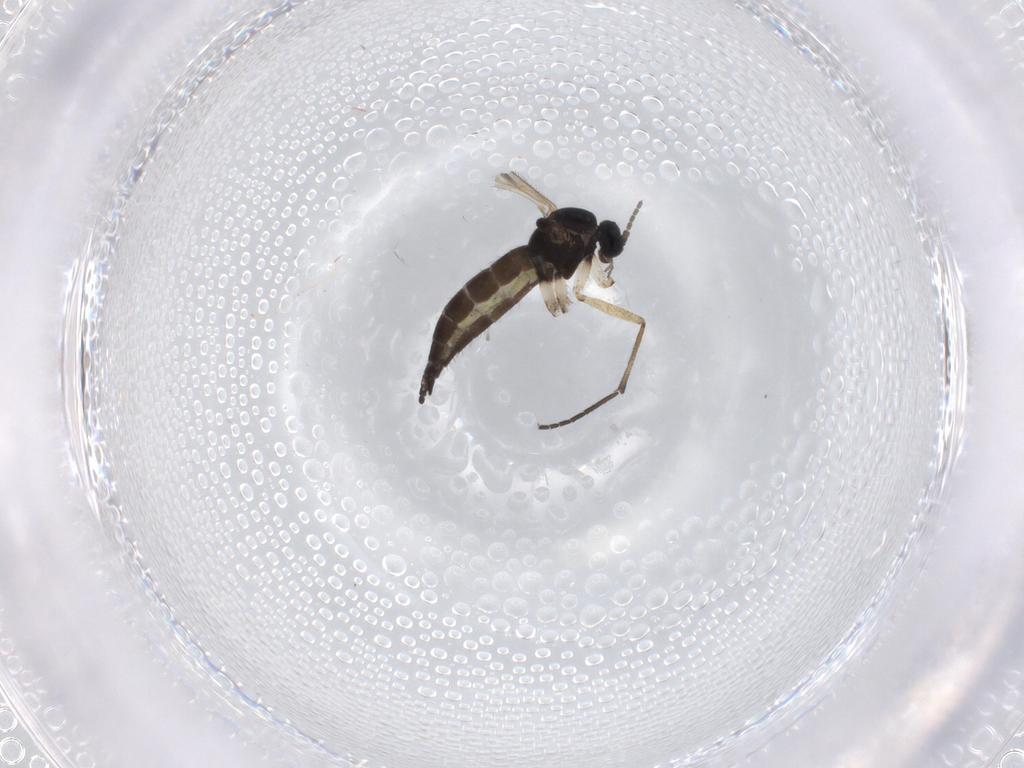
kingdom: Animalia
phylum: Arthropoda
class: Insecta
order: Diptera
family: Sciaridae
